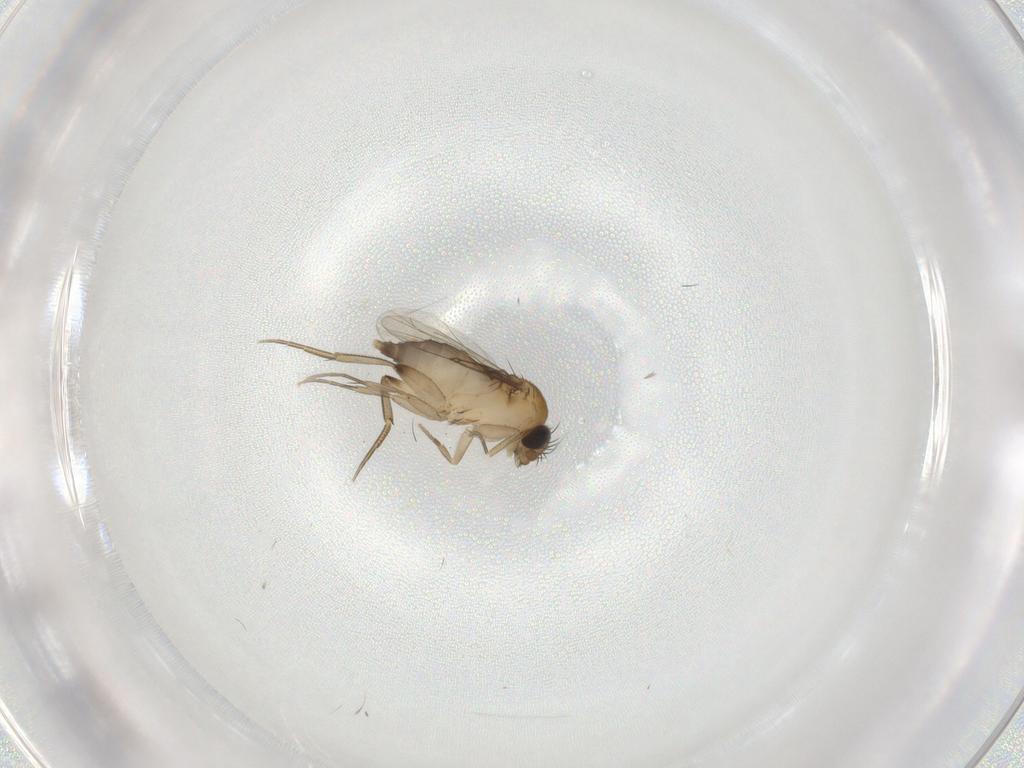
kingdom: Animalia
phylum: Arthropoda
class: Insecta
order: Diptera
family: Phoridae
